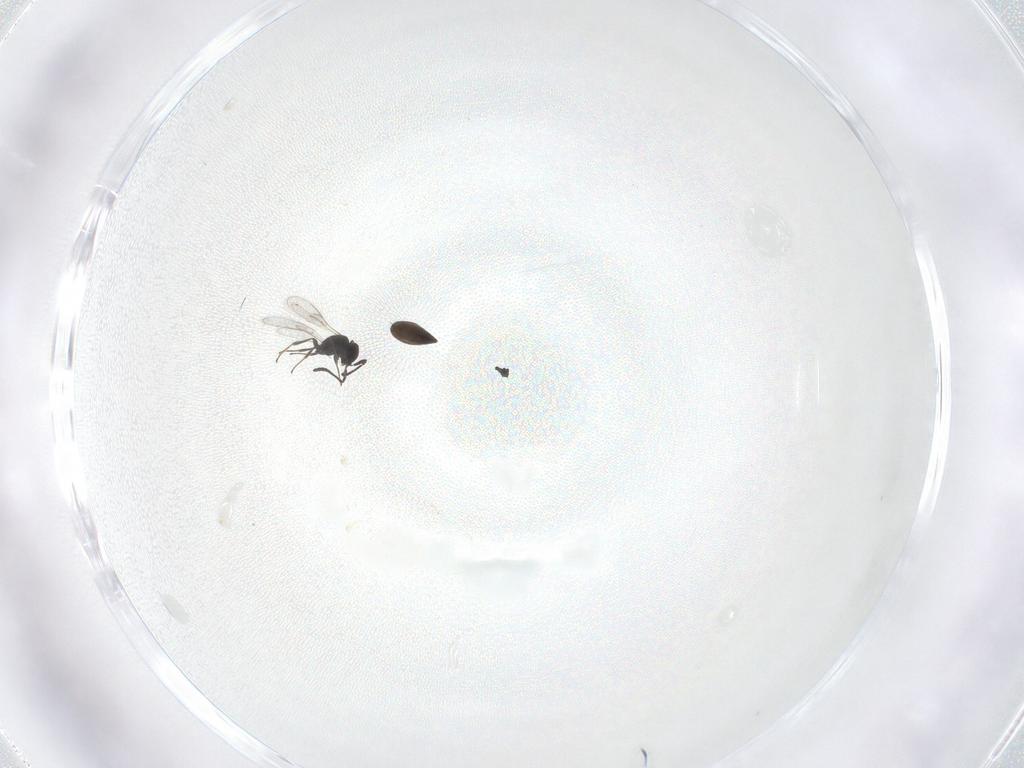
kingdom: Animalia
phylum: Arthropoda
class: Insecta
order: Hymenoptera
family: Scelionidae
